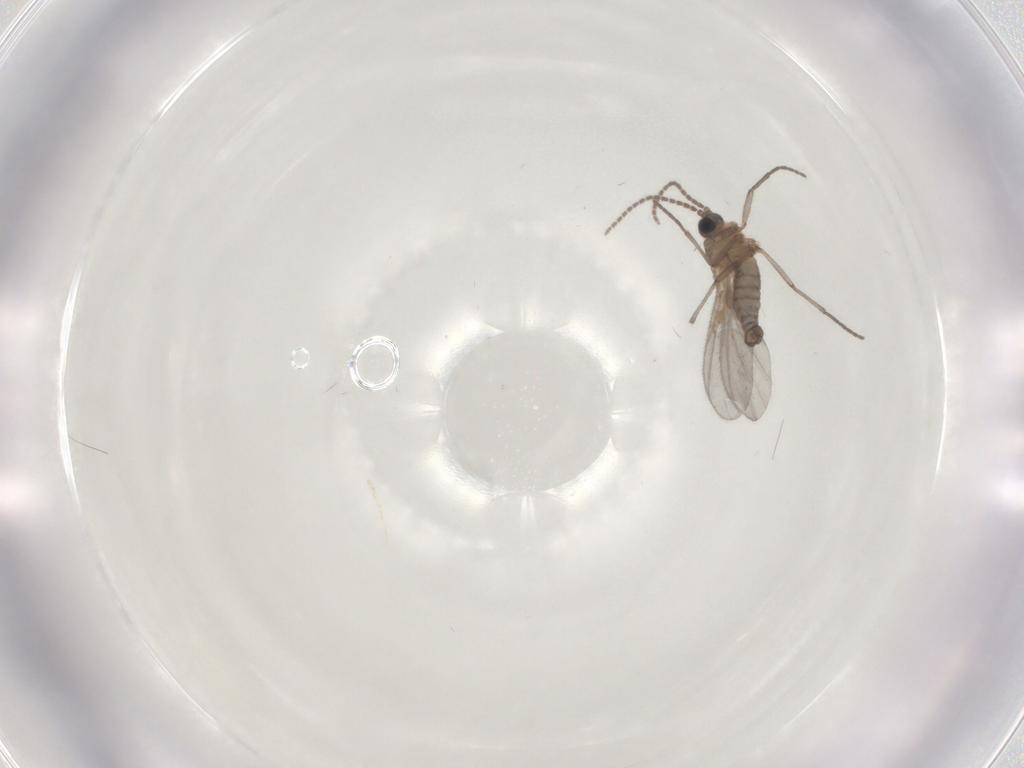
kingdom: Animalia
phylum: Arthropoda
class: Insecta
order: Diptera
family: Sciaridae
